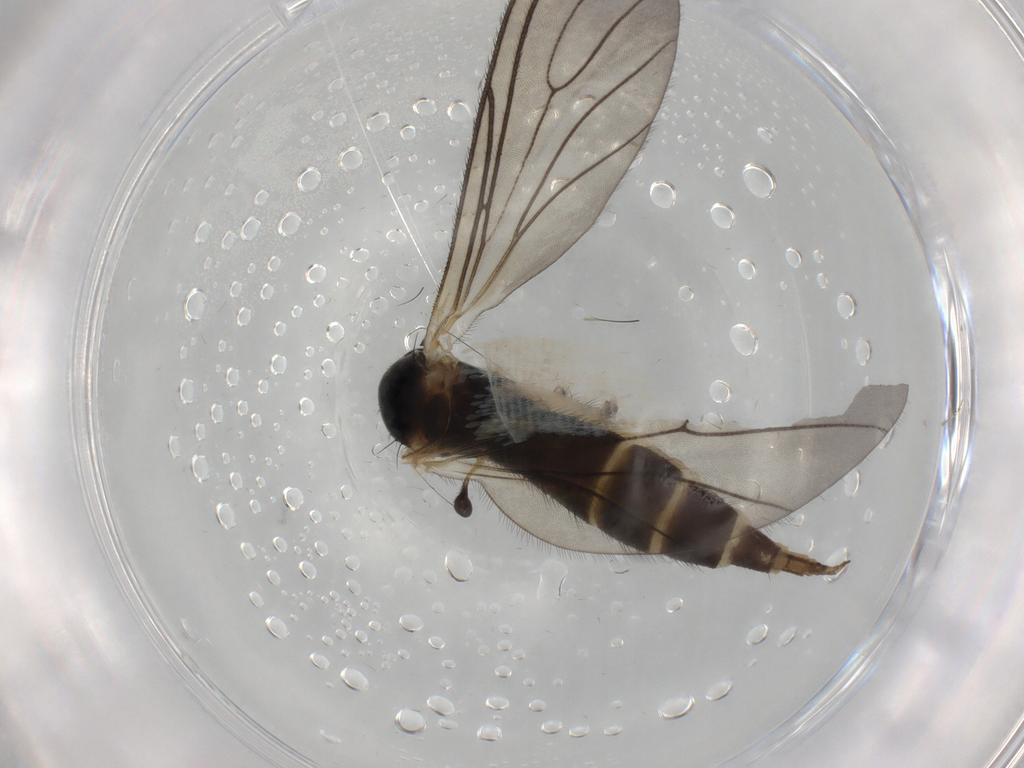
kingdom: Animalia
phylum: Arthropoda
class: Insecta
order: Diptera
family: Sciaridae
